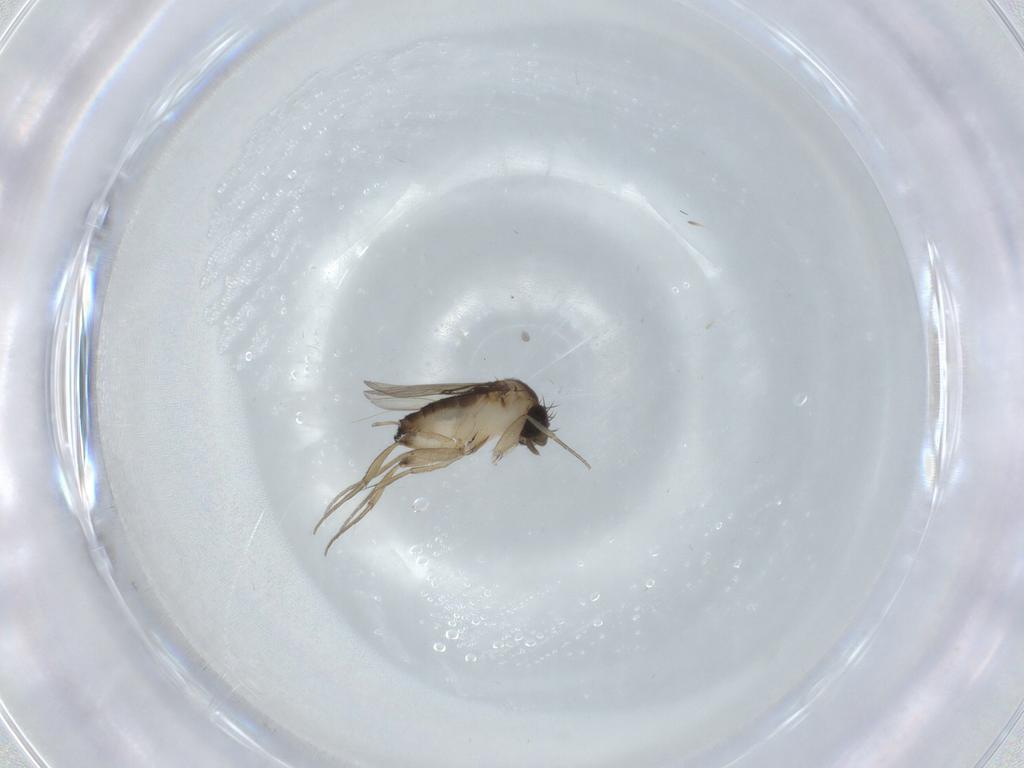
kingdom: Animalia
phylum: Arthropoda
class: Insecta
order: Diptera
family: Phoridae
